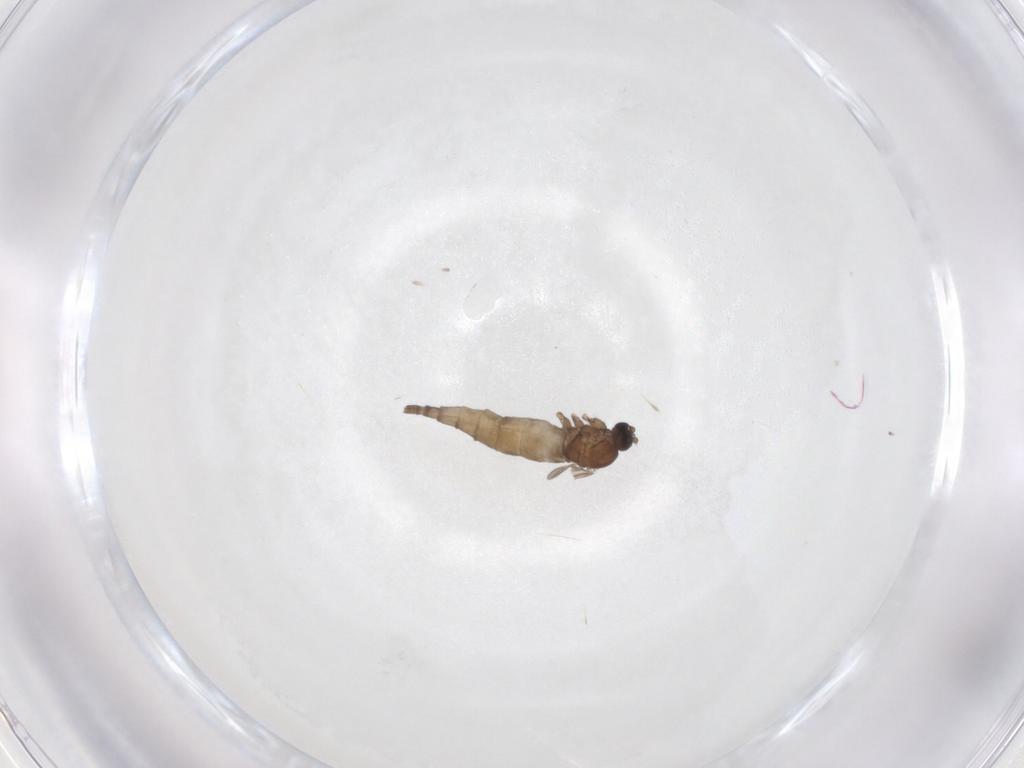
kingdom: Animalia
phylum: Arthropoda
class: Insecta
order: Diptera
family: Sciaridae
